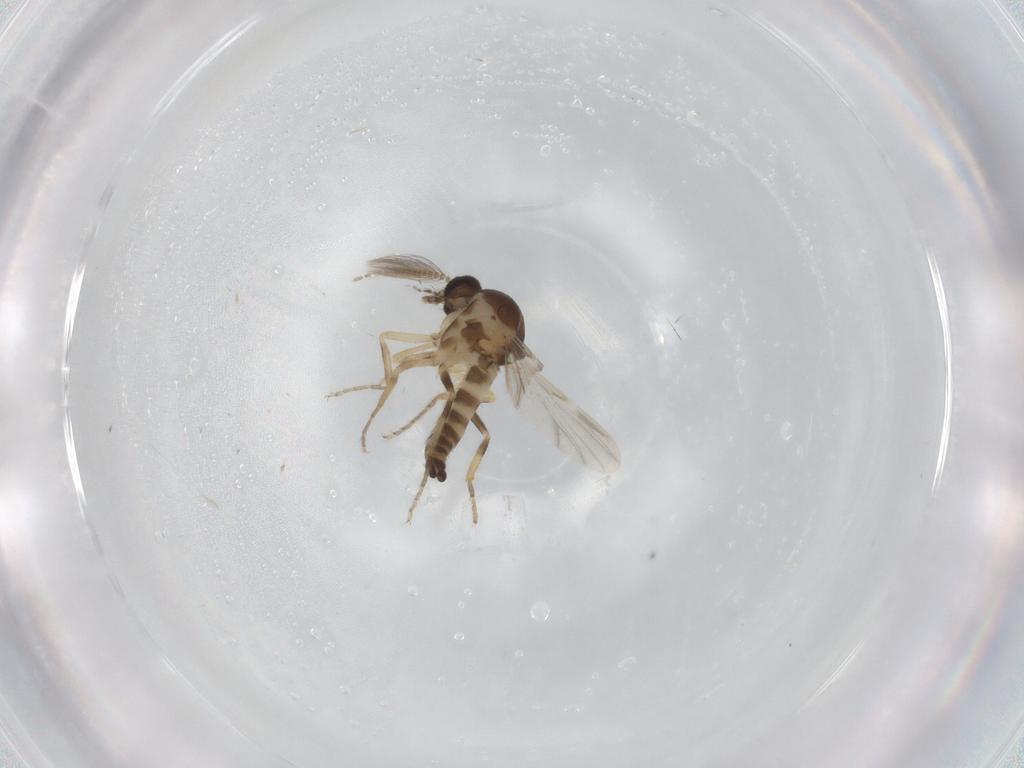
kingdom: Animalia
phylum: Arthropoda
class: Insecta
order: Diptera
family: Ceratopogonidae
